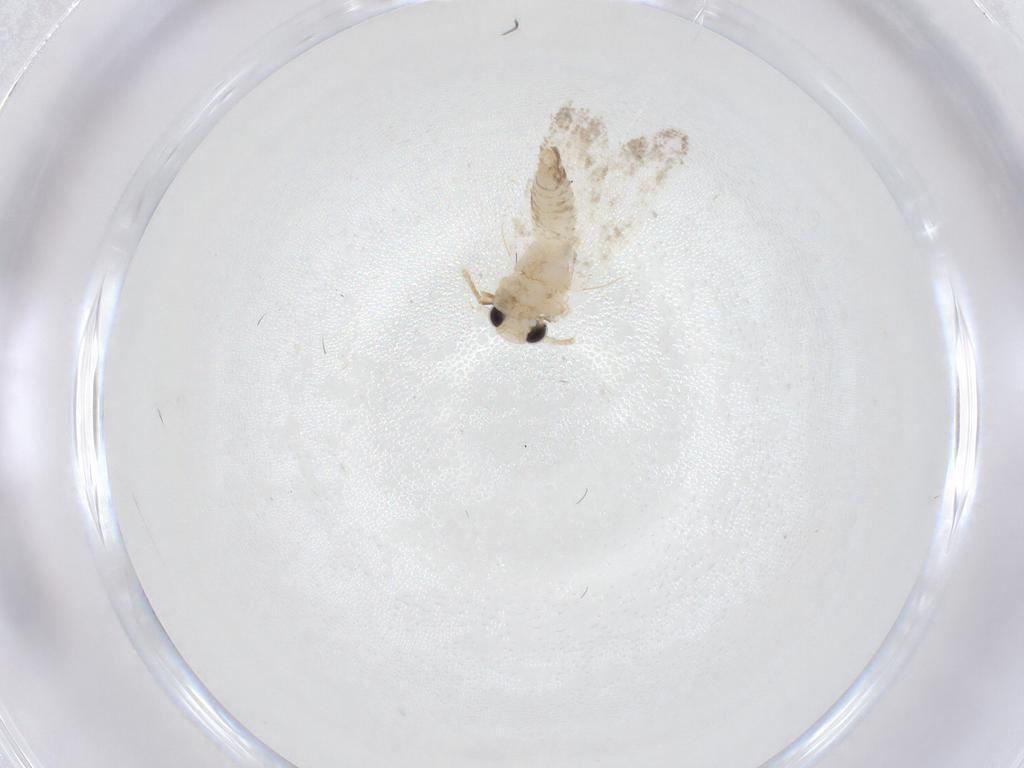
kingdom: Animalia
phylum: Arthropoda
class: Insecta
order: Lepidoptera
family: Psychidae
